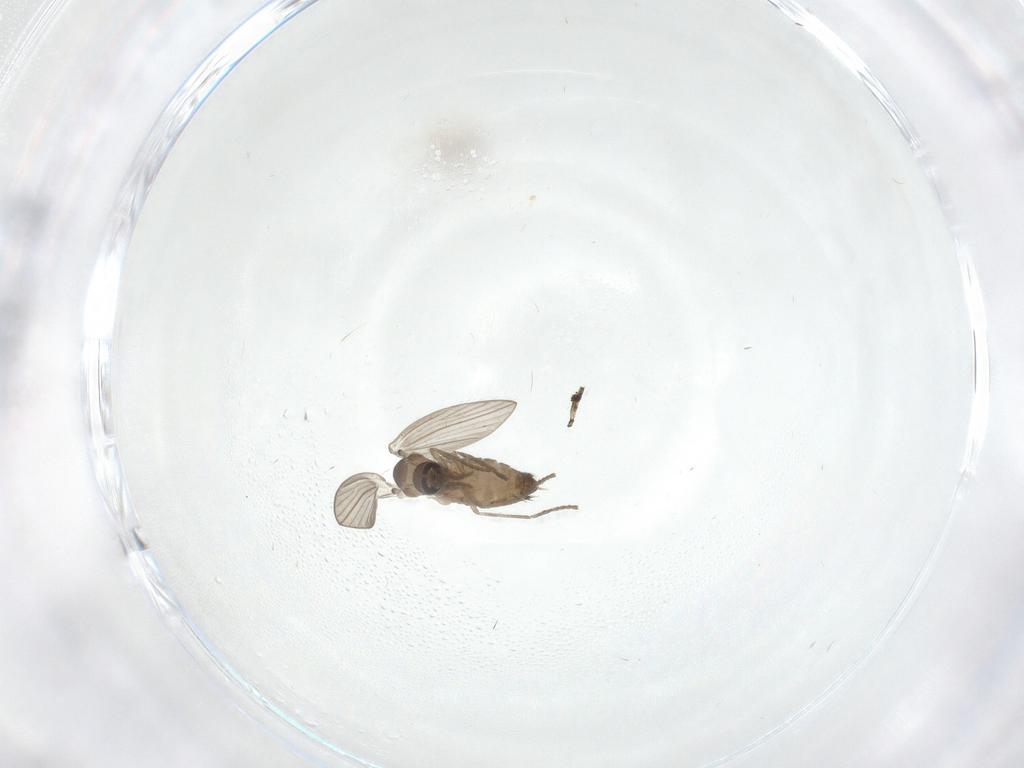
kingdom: Animalia
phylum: Arthropoda
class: Insecta
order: Diptera
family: Psychodidae
